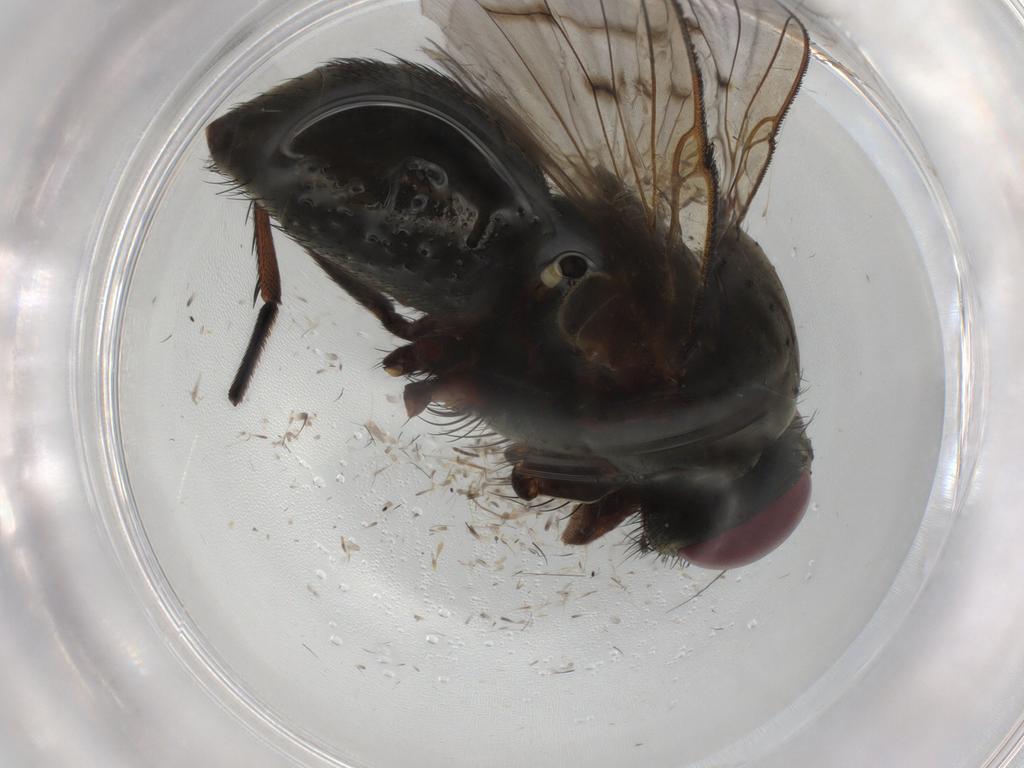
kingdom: Animalia
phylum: Arthropoda
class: Insecta
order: Diptera
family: Muscidae
